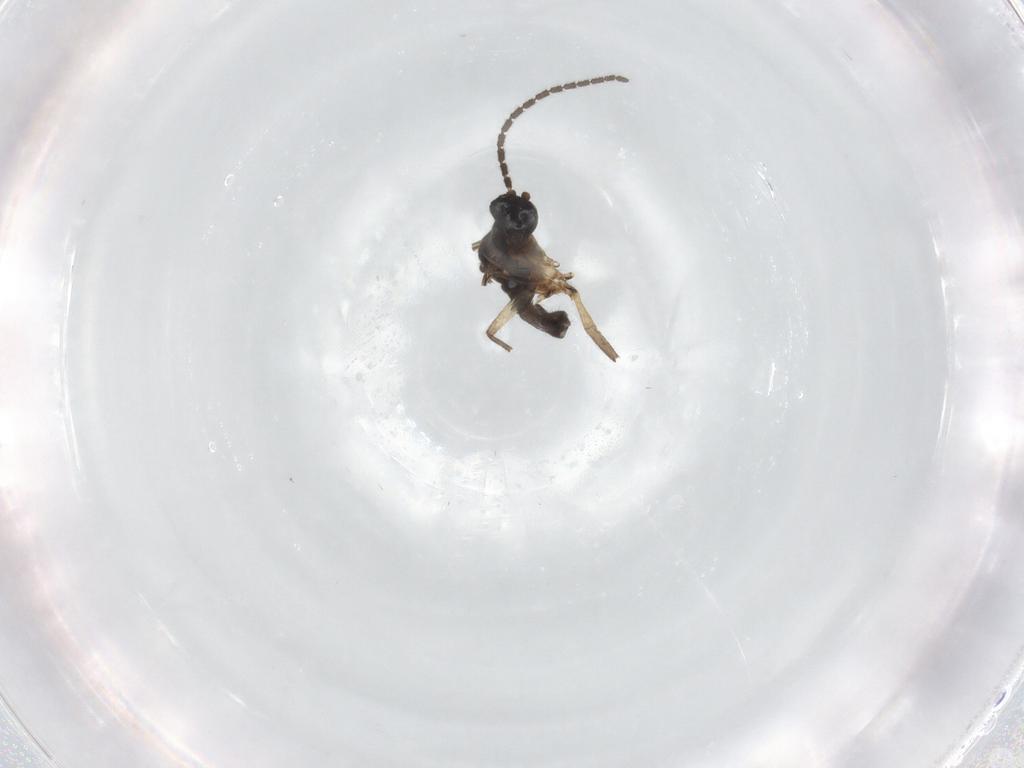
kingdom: Animalia
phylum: Arthropoda
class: Insecta
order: Diptera
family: Sciaridae
